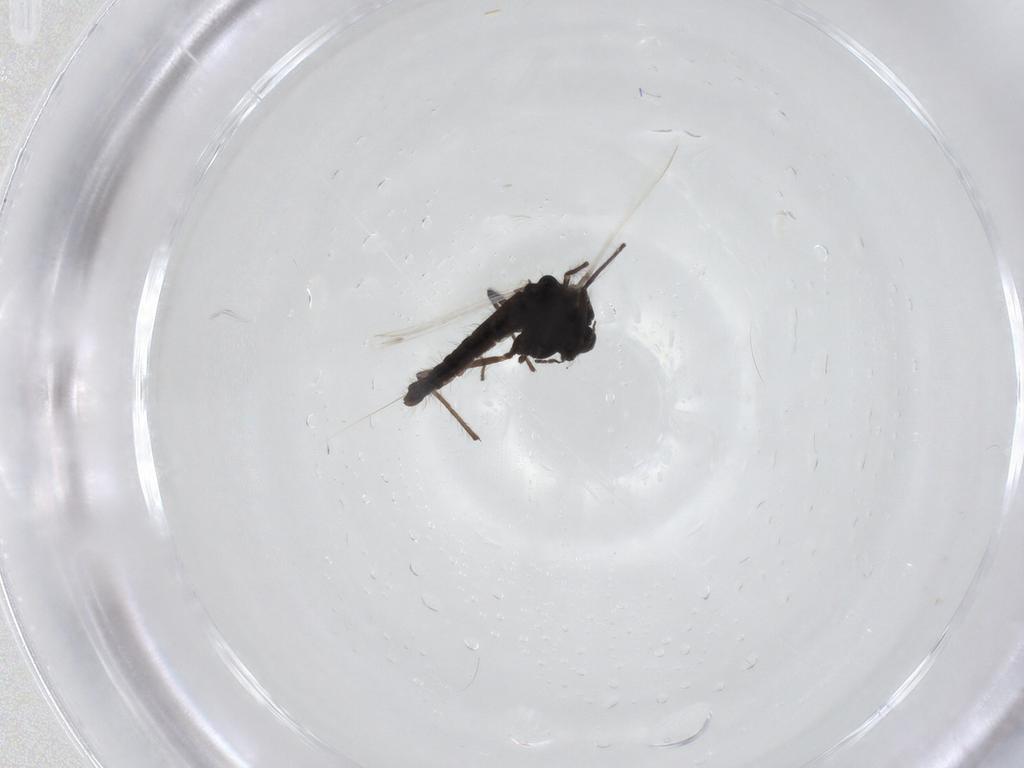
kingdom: Animalia
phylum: Arthropoda
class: Insecta
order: Diptera
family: Chironomidae
